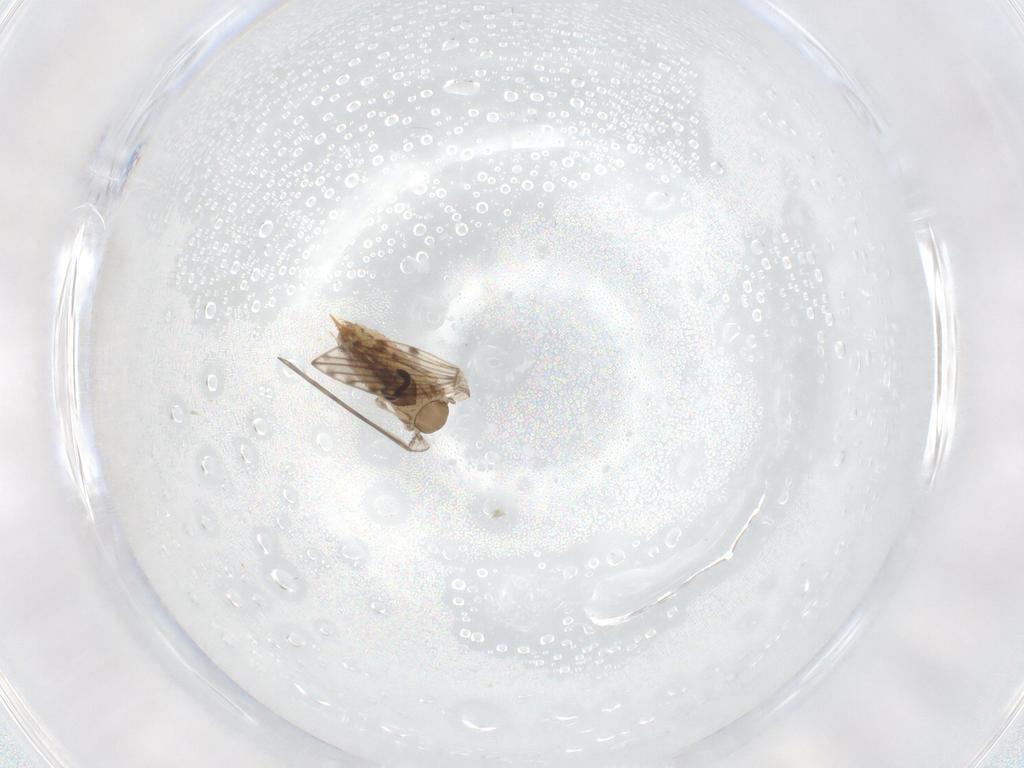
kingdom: Animalia
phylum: Arthropoda
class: Insecta
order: Diptera
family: Psychodidae
